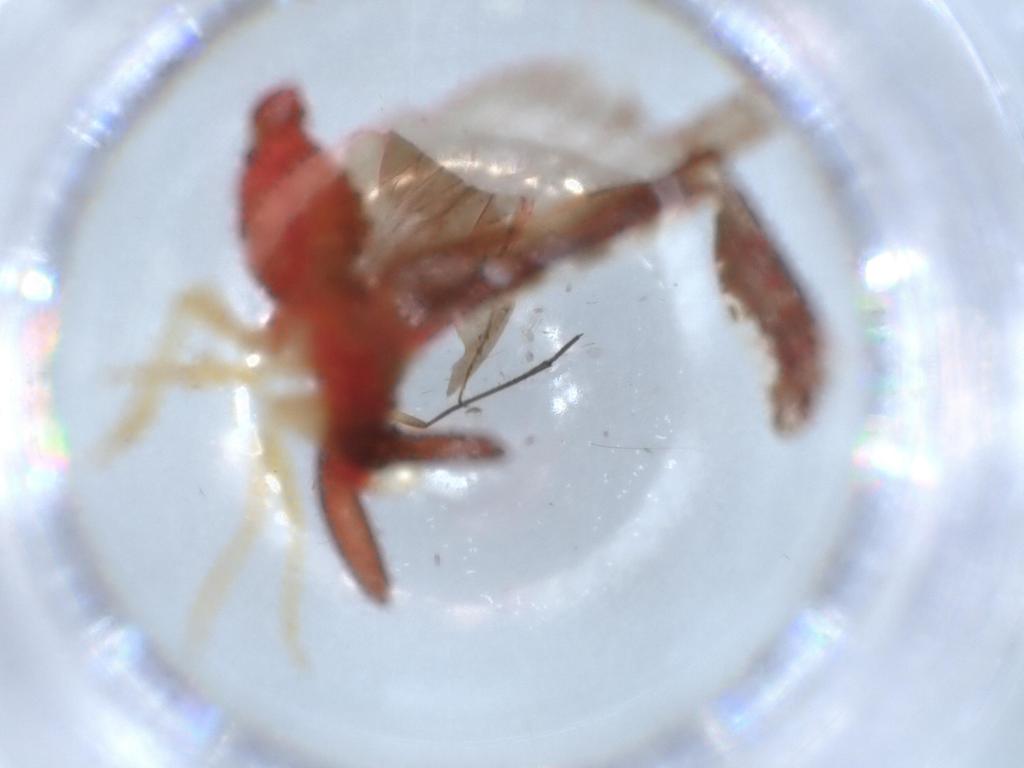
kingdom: Animalia
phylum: Arthropoda
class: Insecta
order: Hemiptera
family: Derbidae
